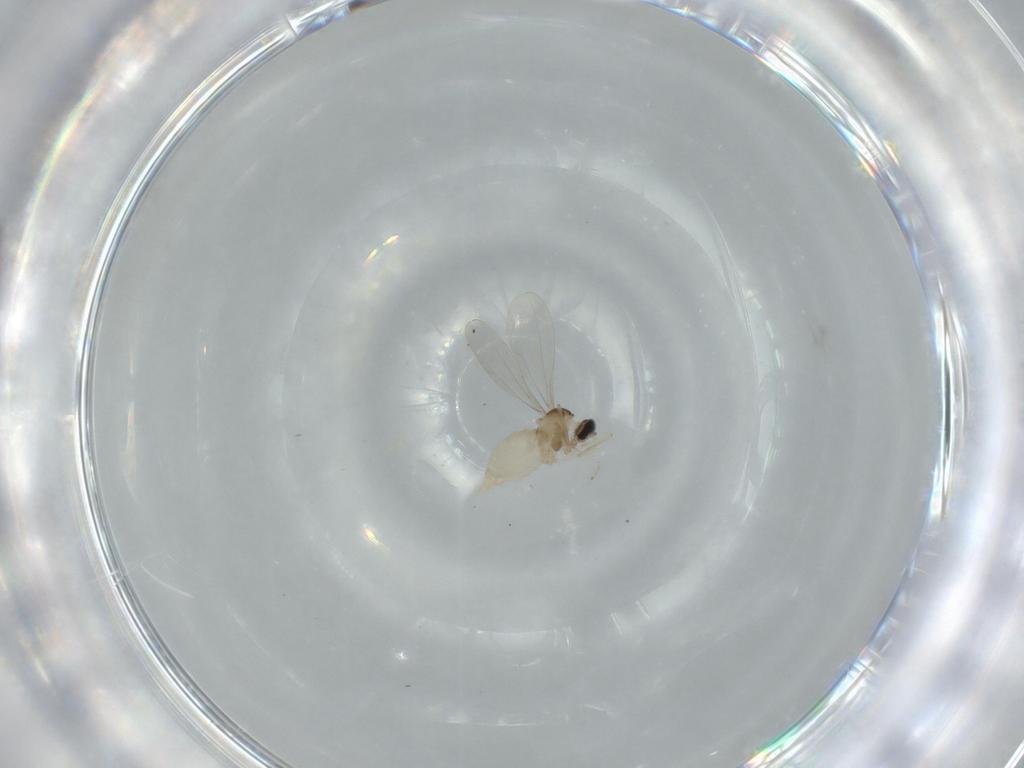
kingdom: Animalia
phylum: Arthropoda
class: Insecta
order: Diptera
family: Cecidomyiidae
